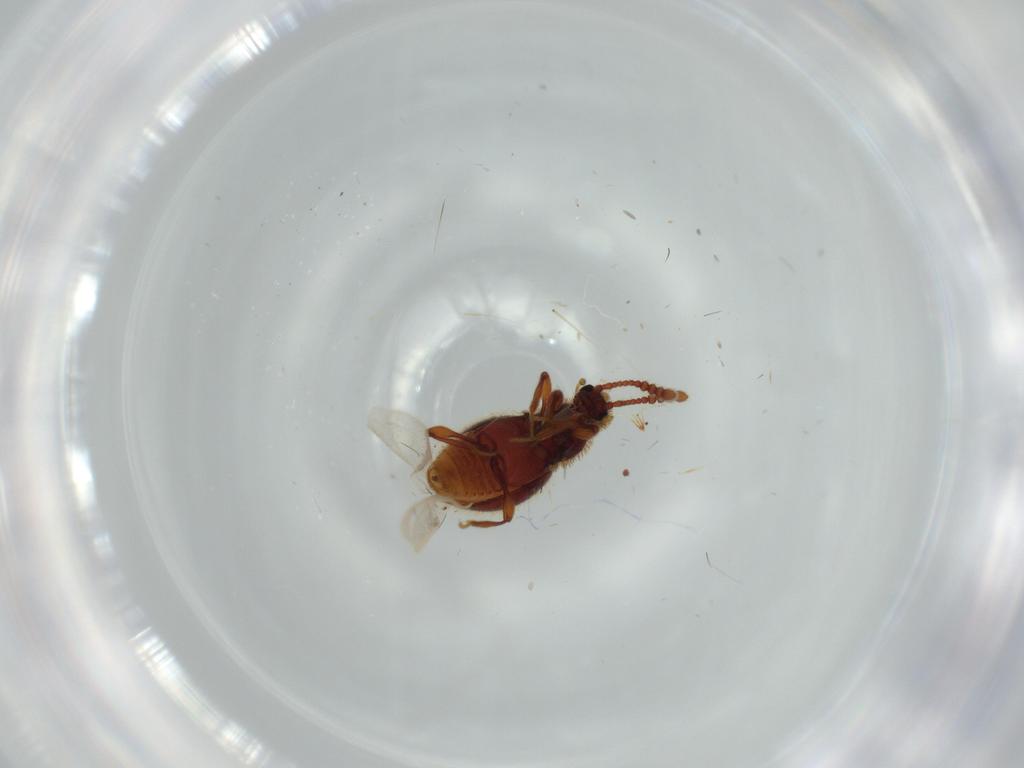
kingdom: Animalia
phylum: Arthropoda
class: Insecta
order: Coleoptera
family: Elateridae
